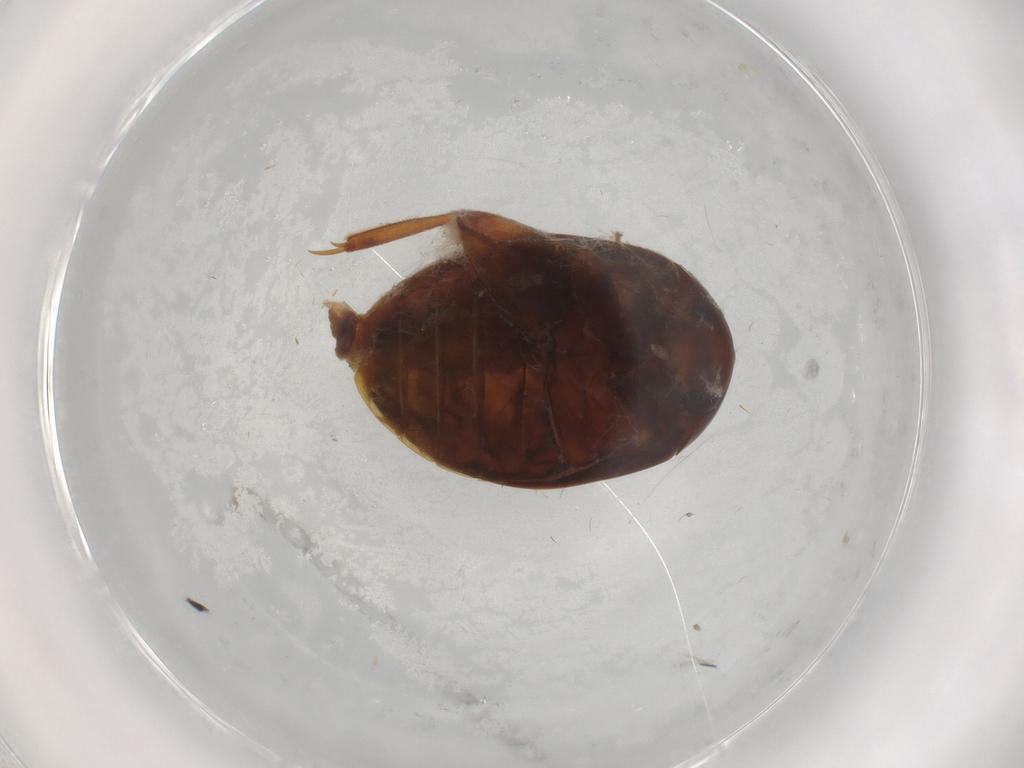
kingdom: Animalia
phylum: Arthropoda
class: Insecta
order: Coleoptera
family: Scirtidae
